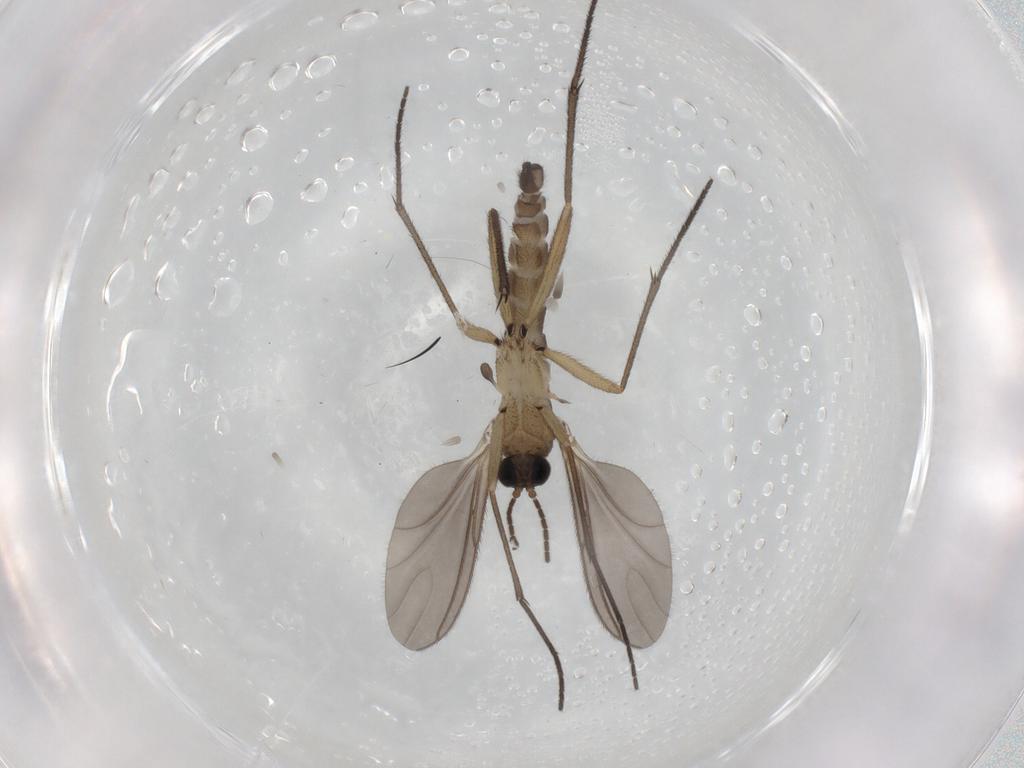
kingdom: Animalia
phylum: Arthropoda
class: Insecta
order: Diptera
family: Sciaridae
